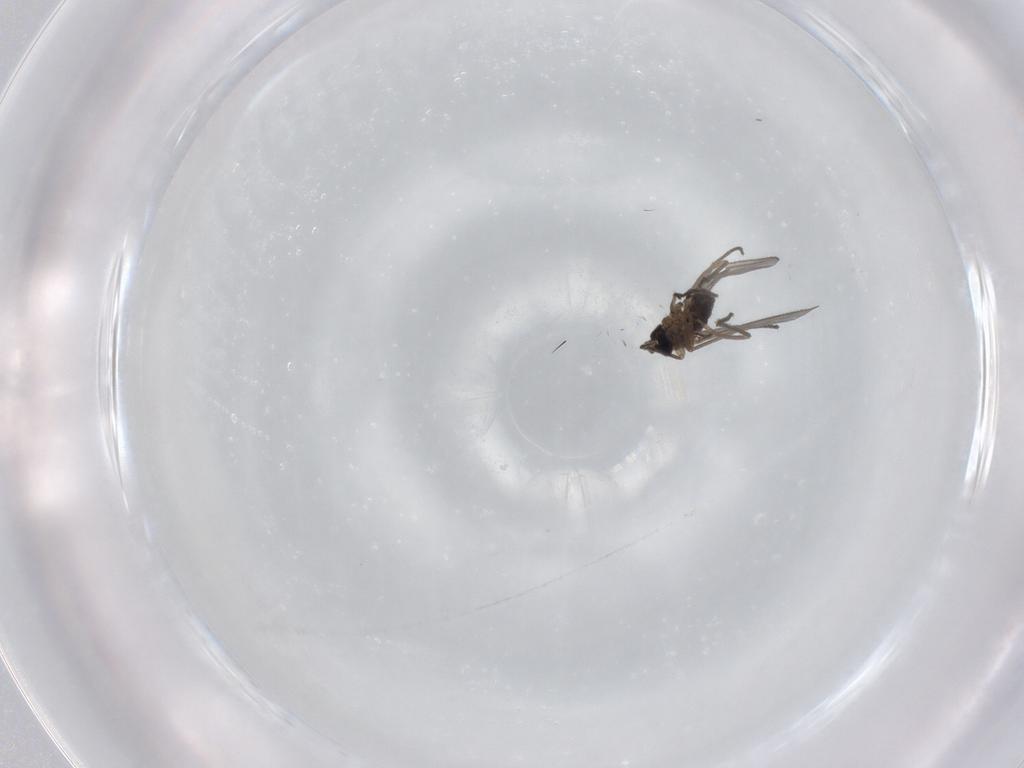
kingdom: Animalia
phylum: Arthropoda
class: Insecta
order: Diptera
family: Sciaridae
